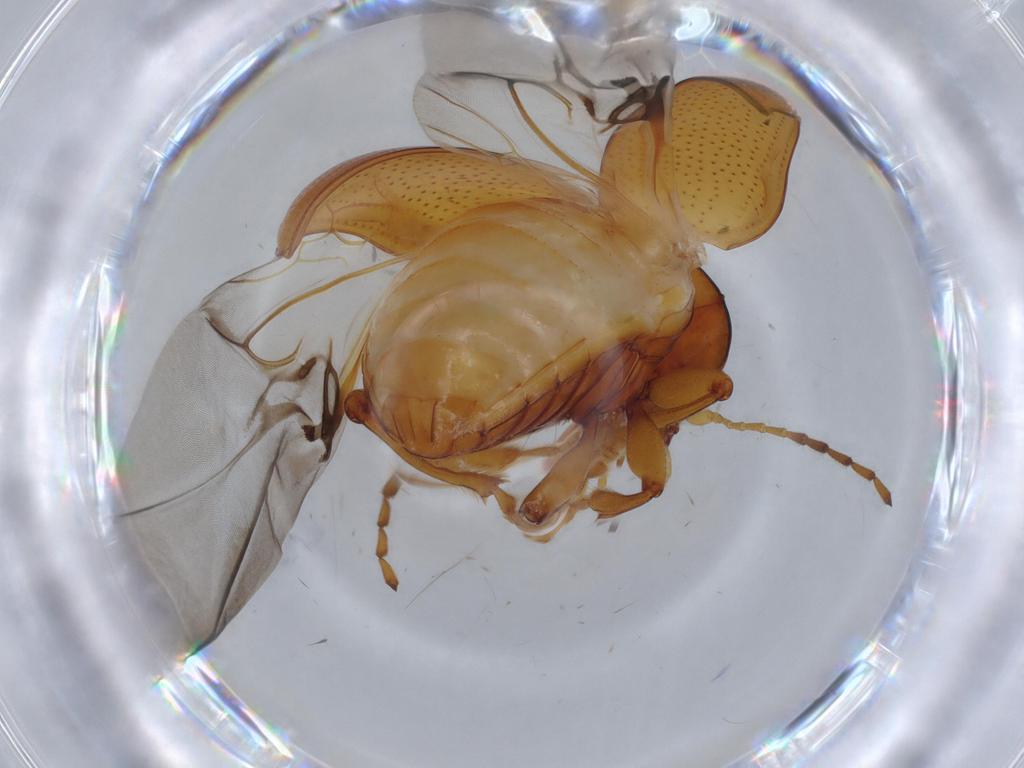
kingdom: Animalia
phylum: Arthropoda
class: Insecta
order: Coleoptera
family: Chrysomelidae
